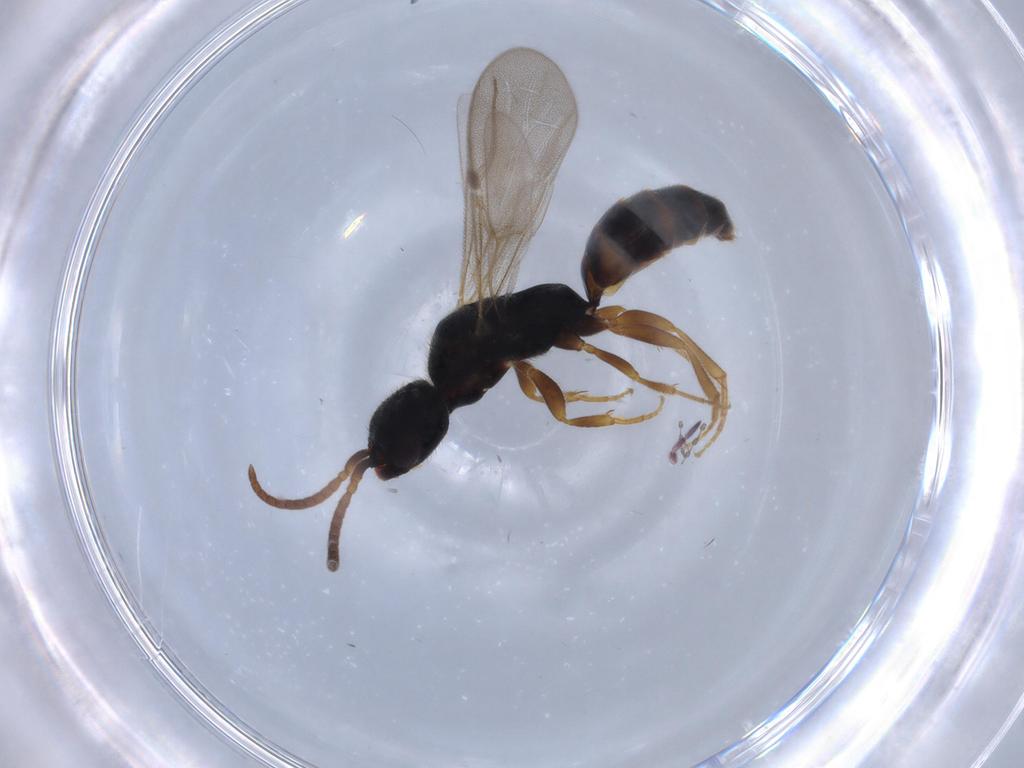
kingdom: Animalia
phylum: Arthropoda
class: Insecta
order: Hymenoptera
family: Bethylidae
